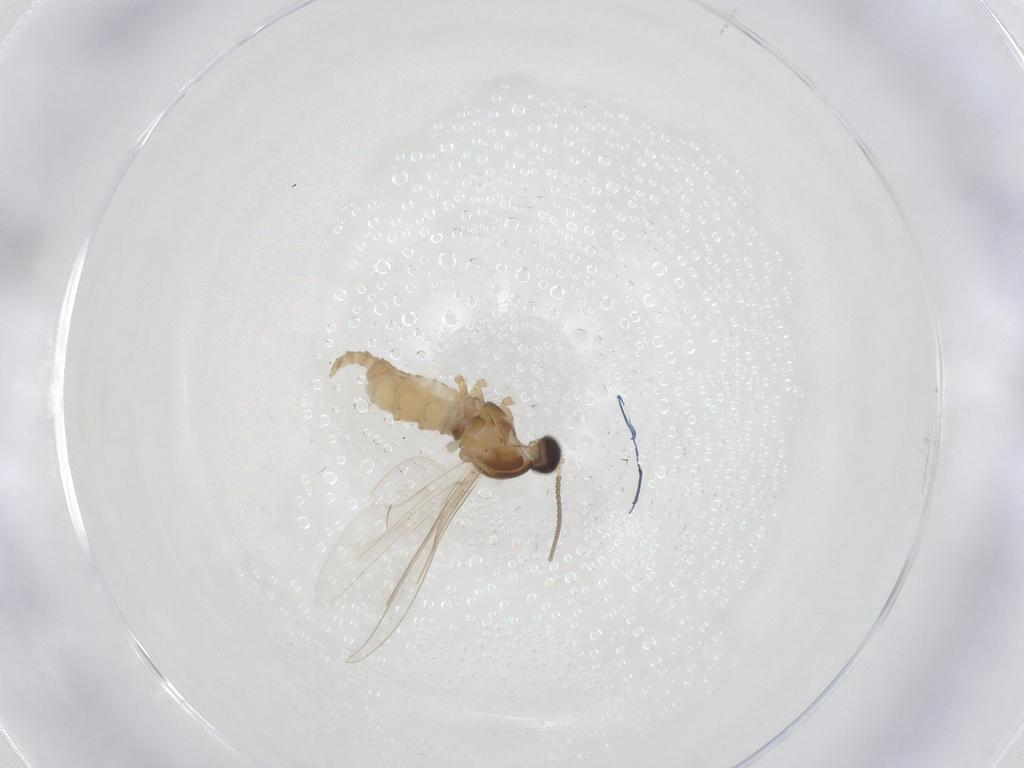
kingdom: Animalia
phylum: Arthropoda
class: Insecta
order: Diptera
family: Cecidomyiidae
